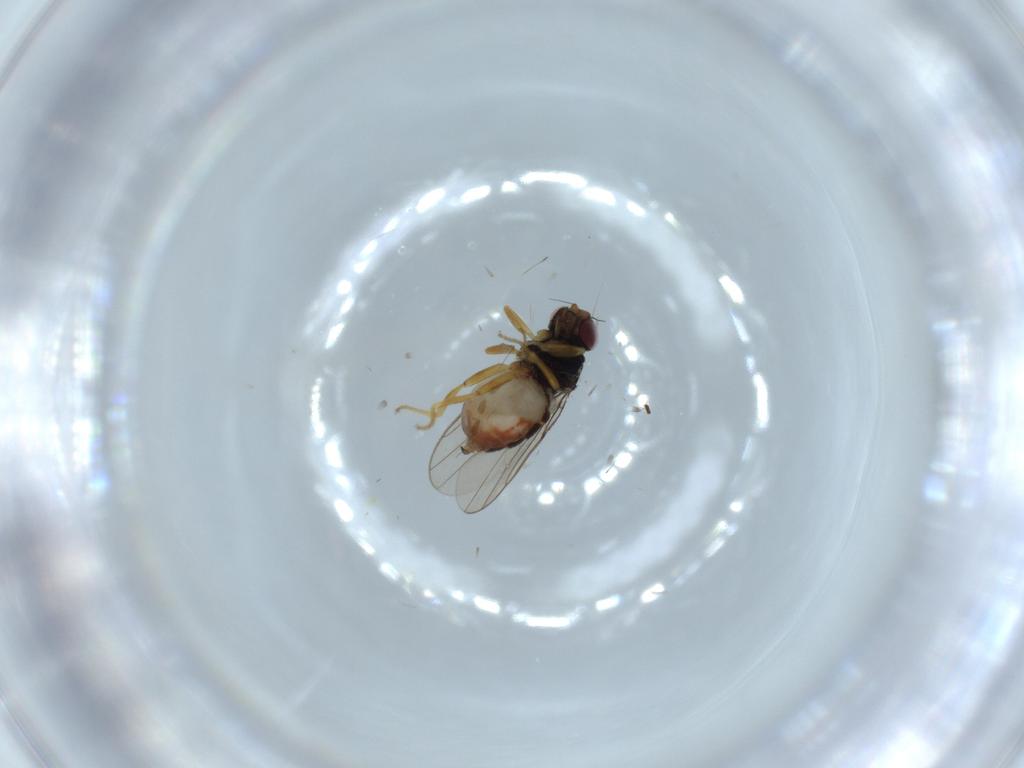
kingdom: Animalia
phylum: Arthropoda
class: Insecta
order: Diptera
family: Chloropidae
